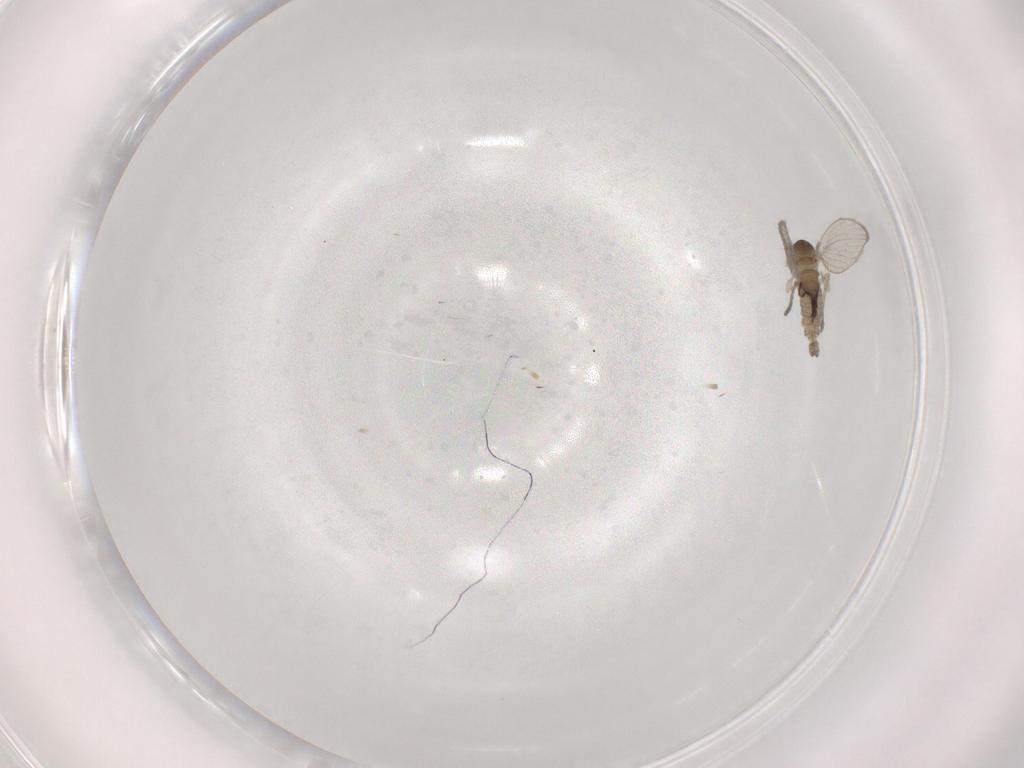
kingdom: Animalia
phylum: Arthropoda
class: Insecta
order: Diptera
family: Psychodidae
